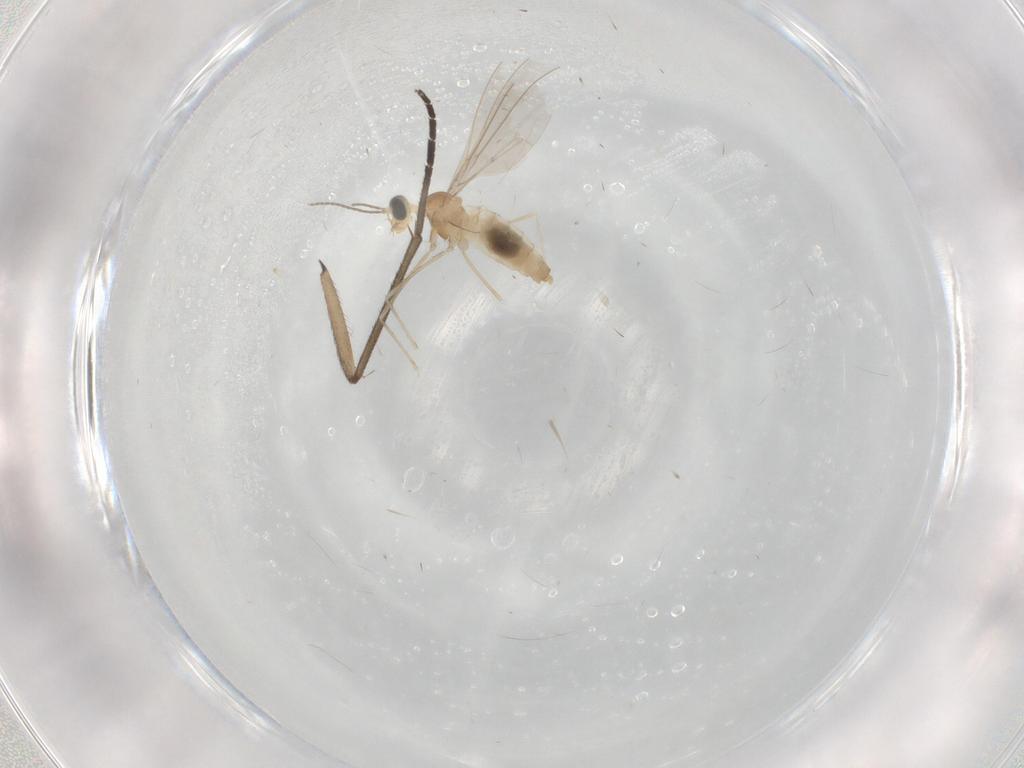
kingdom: Animalia
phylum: Arthropoda
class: Insecta
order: Diptera
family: Cecidomyiidae
